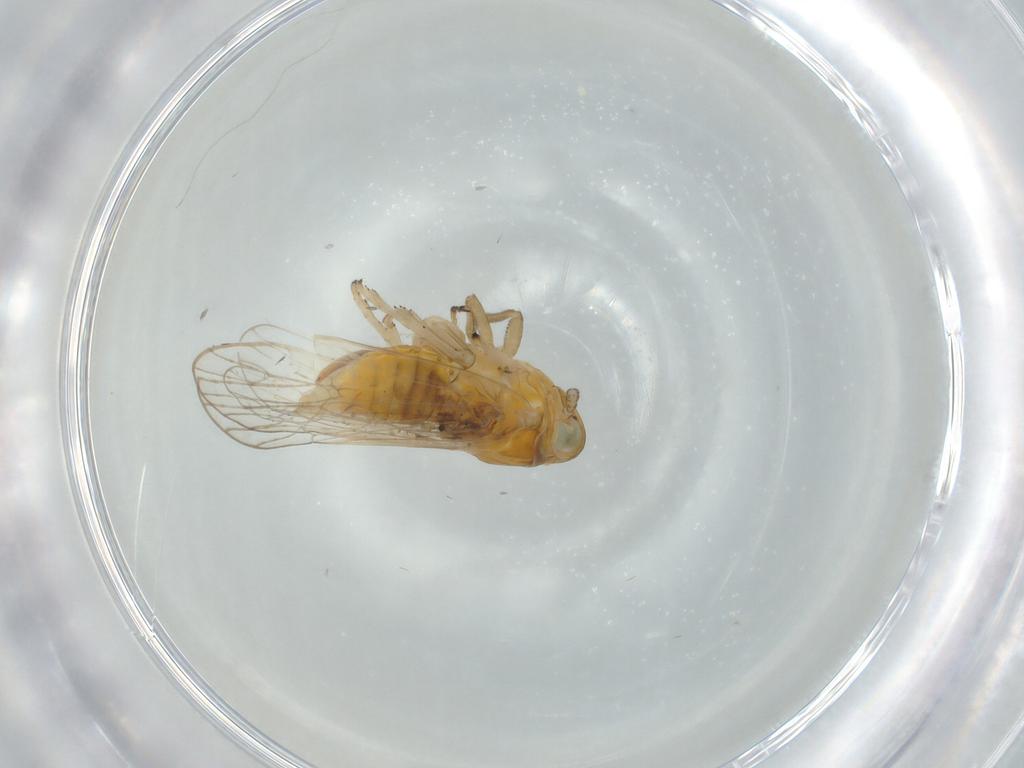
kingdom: Animalia
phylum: Arthropoda
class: Insecta
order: Hemiptera
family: Delphacidae
